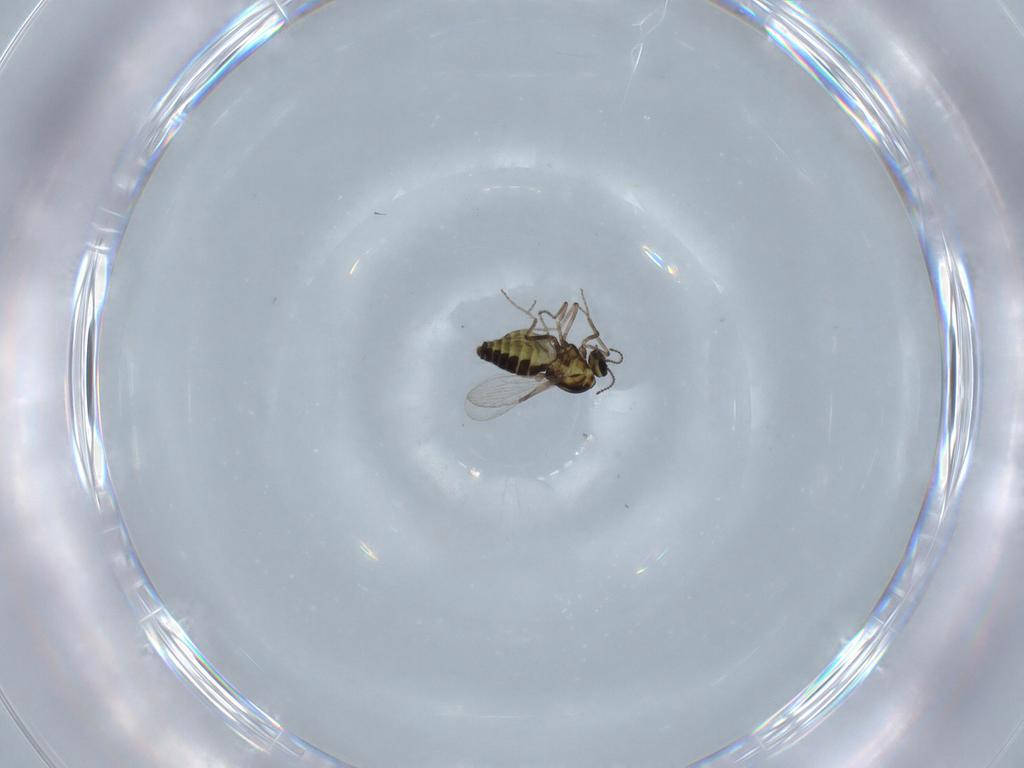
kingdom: Animalia
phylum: Arthropoda
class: Insecta
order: Diptera
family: Ceratopogonidae
